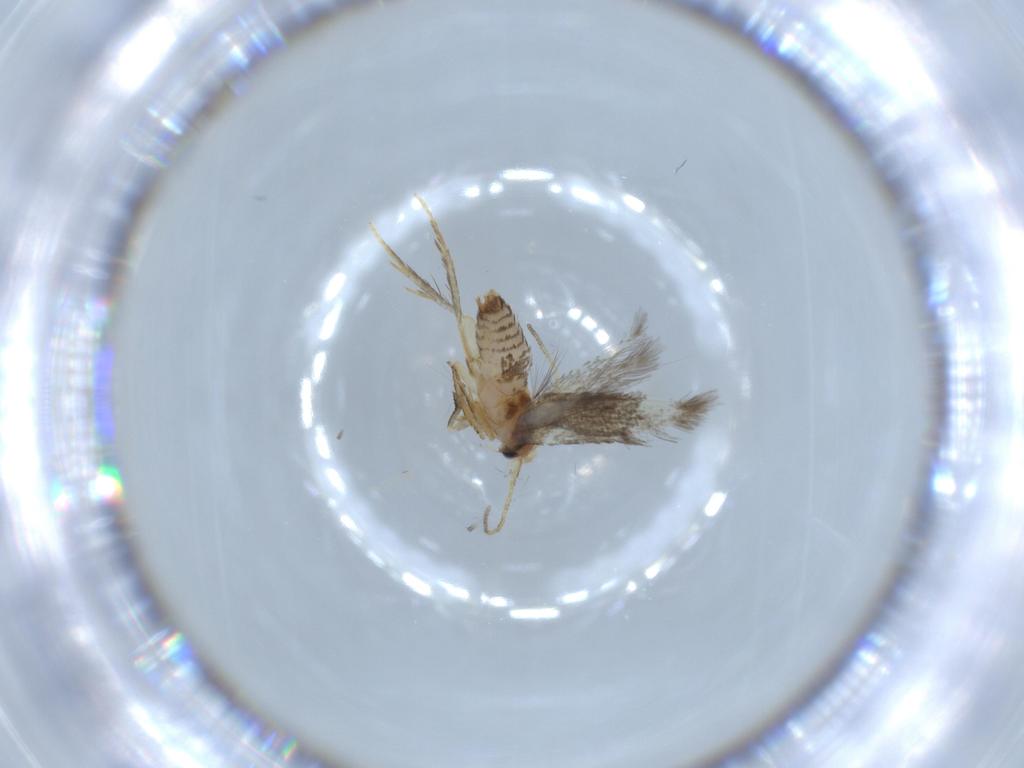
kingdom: Animalia
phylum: Arthropoda
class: Insecta
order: Lepidoptera
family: Nepticulidae
